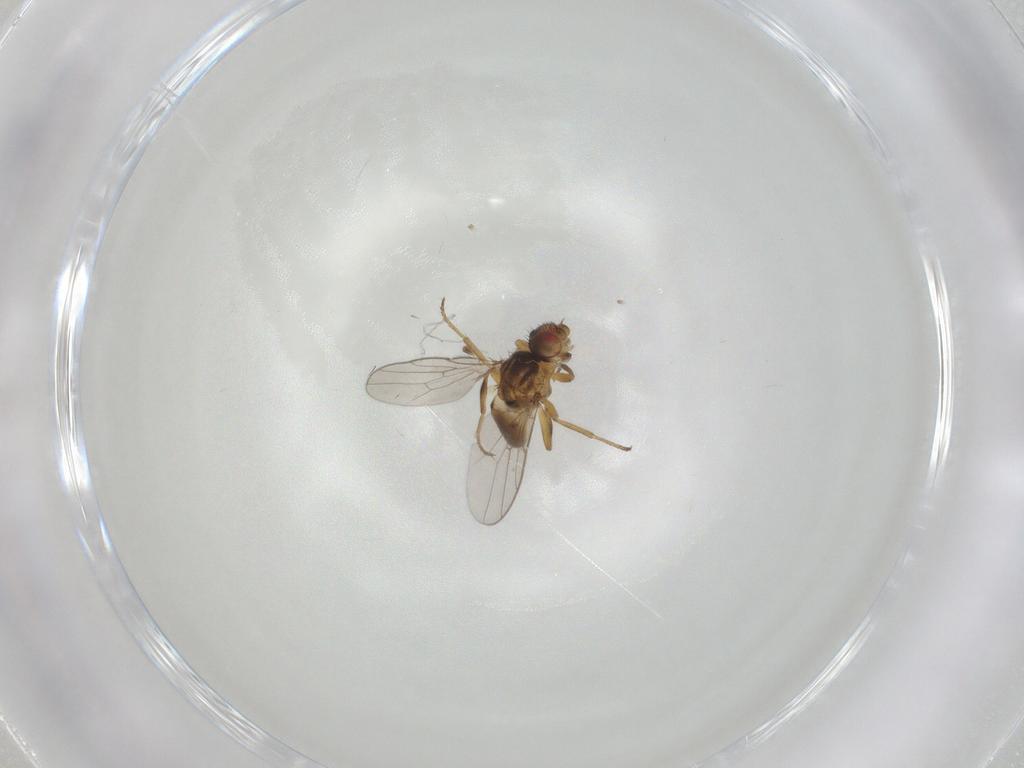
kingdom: Animalia
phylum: Arthropoda
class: Insecta
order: Diptera
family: Chloropidae
